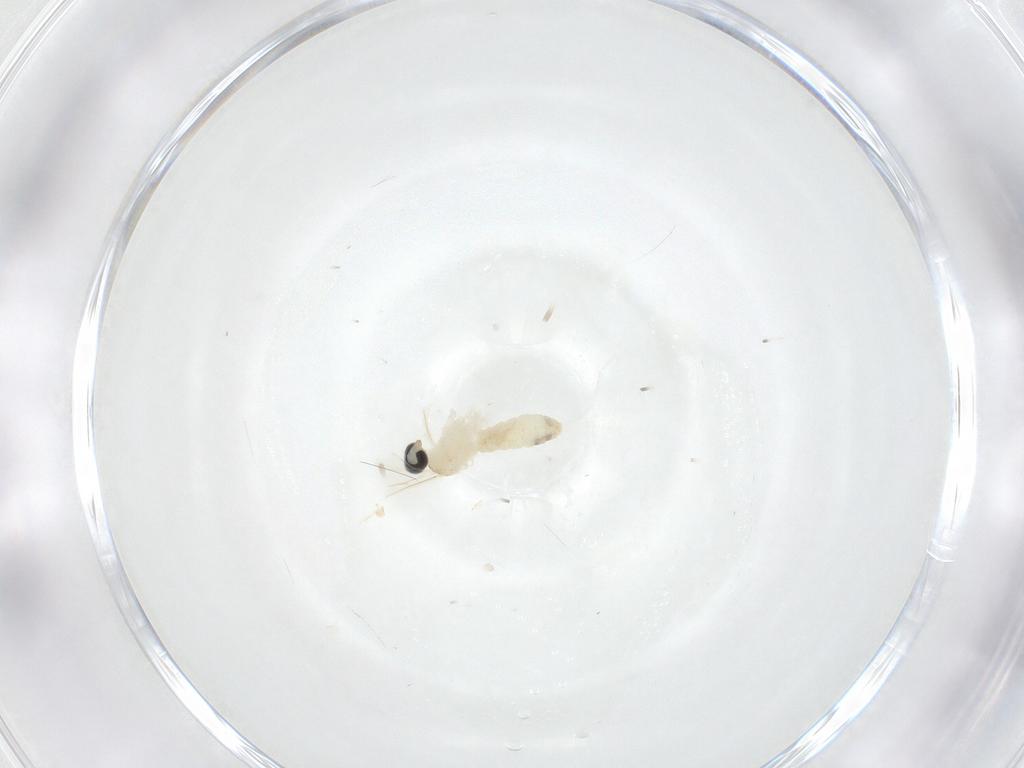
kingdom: Animalia
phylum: Arthropoda
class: Insecta
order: Diptera
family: Cecidomyiidae
